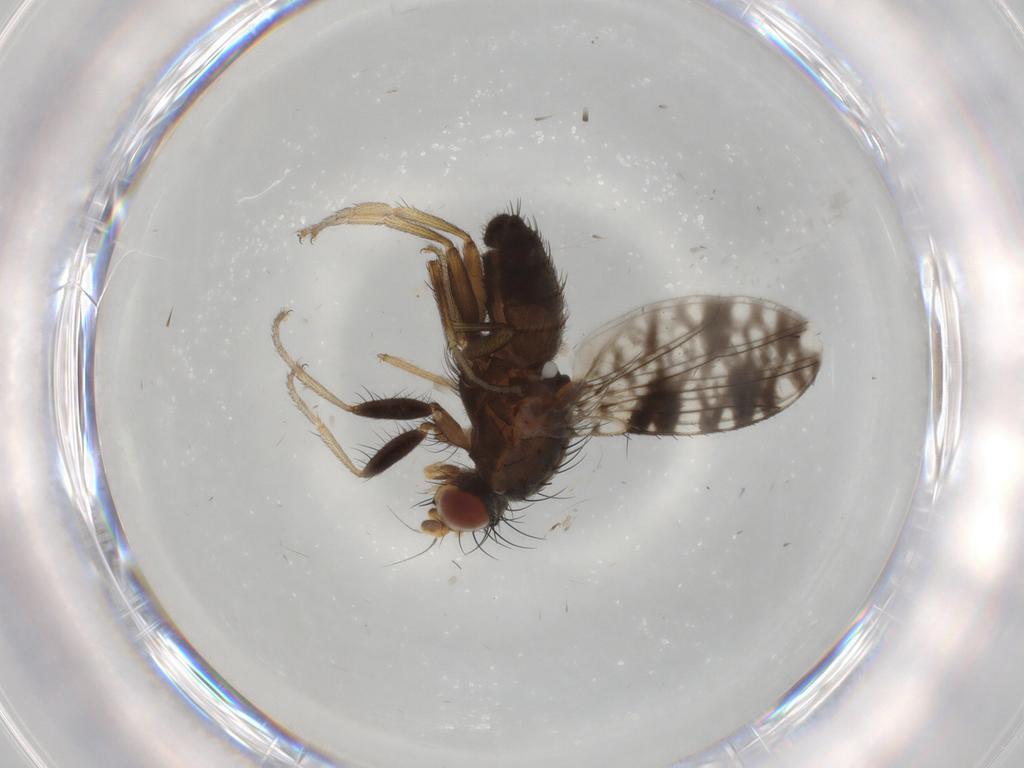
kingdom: Animalia
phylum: Arthropoda
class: Insecta
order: Diptera
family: Tephritidae
